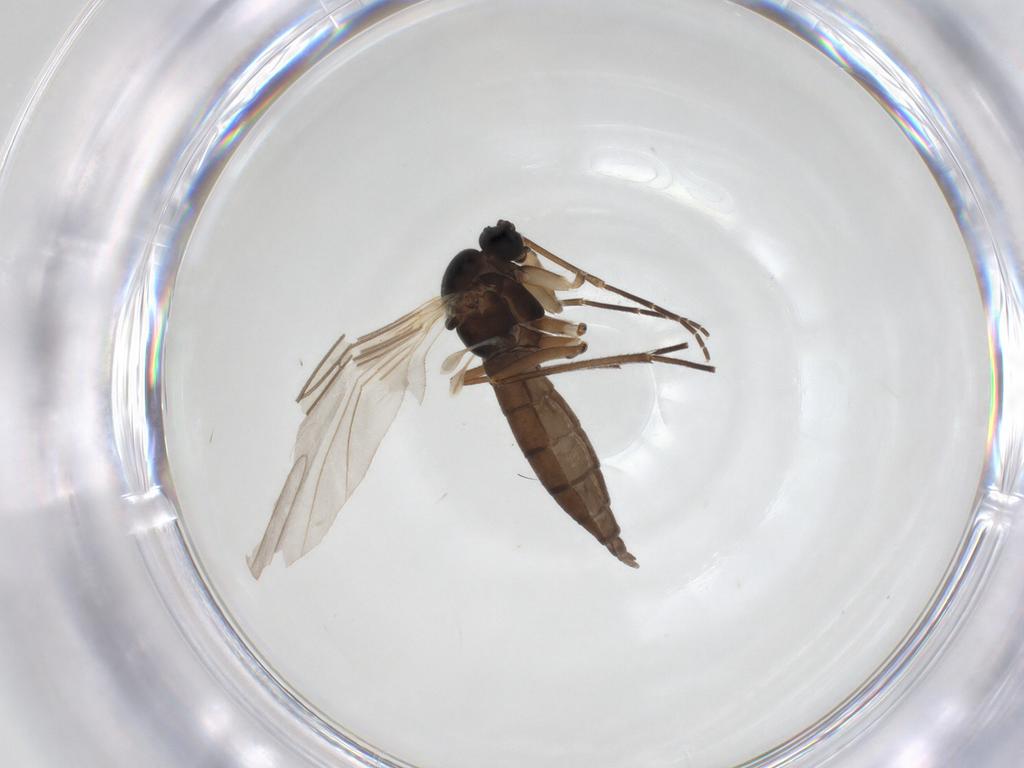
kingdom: Animalia
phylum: Arthropoda
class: Insecta
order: Diptera
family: Sciaridae
